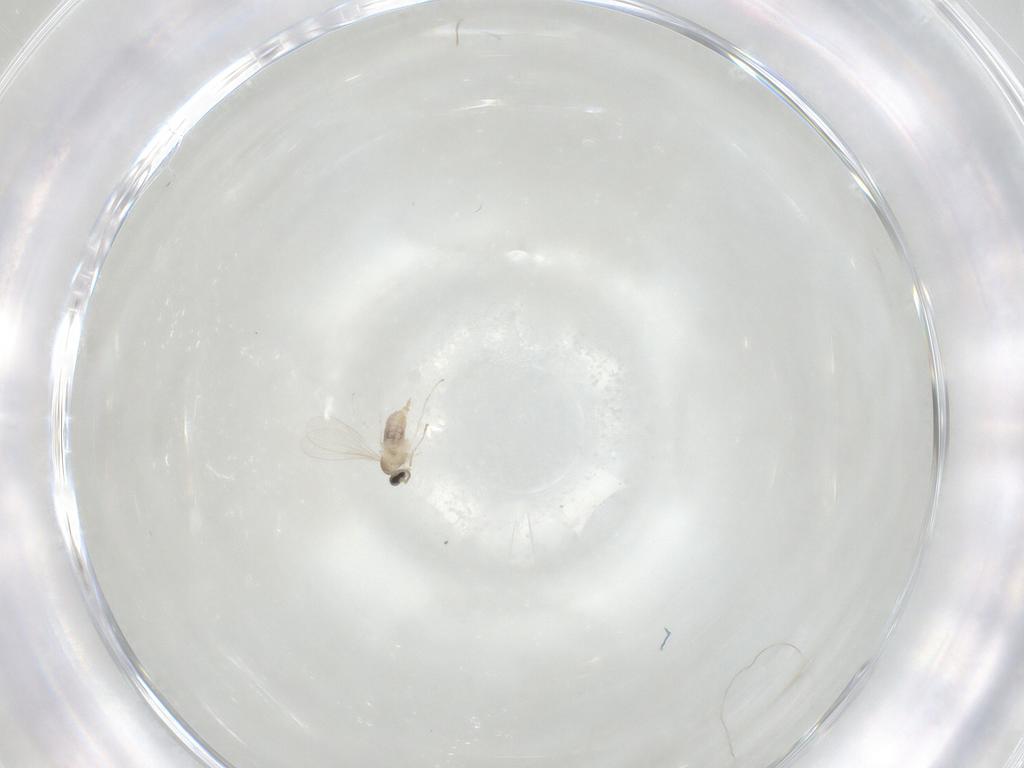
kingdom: Animalia
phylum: Arthropoda
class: Insecta
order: Diptera
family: Cecidomyiidae
